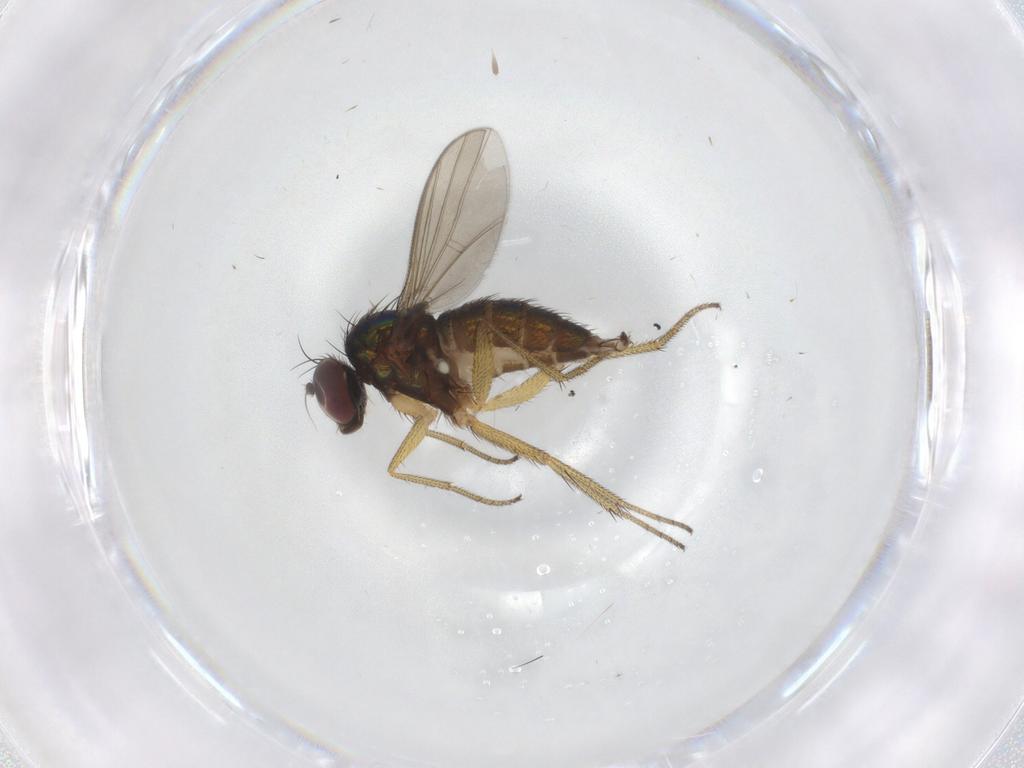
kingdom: Animalia
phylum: Arthropoda
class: Insecta
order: Diptera
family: Dolichopodidae
